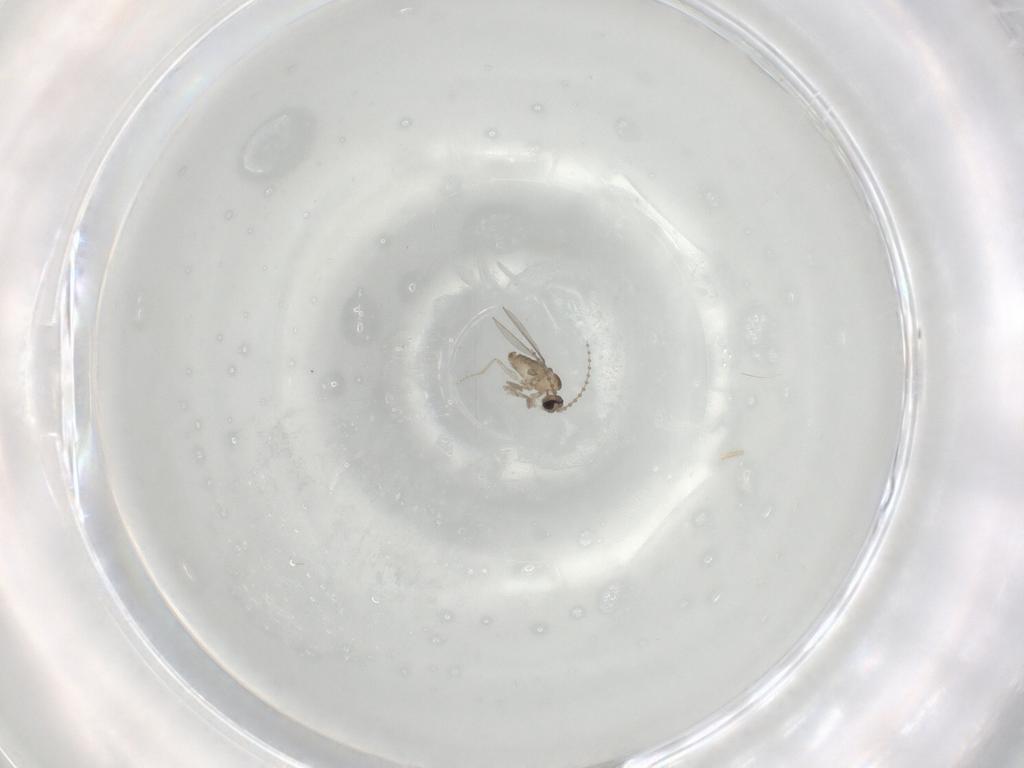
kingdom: Animalia
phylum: Arthropoda
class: Insecta
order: Diptera
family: Cecidomyiidae
